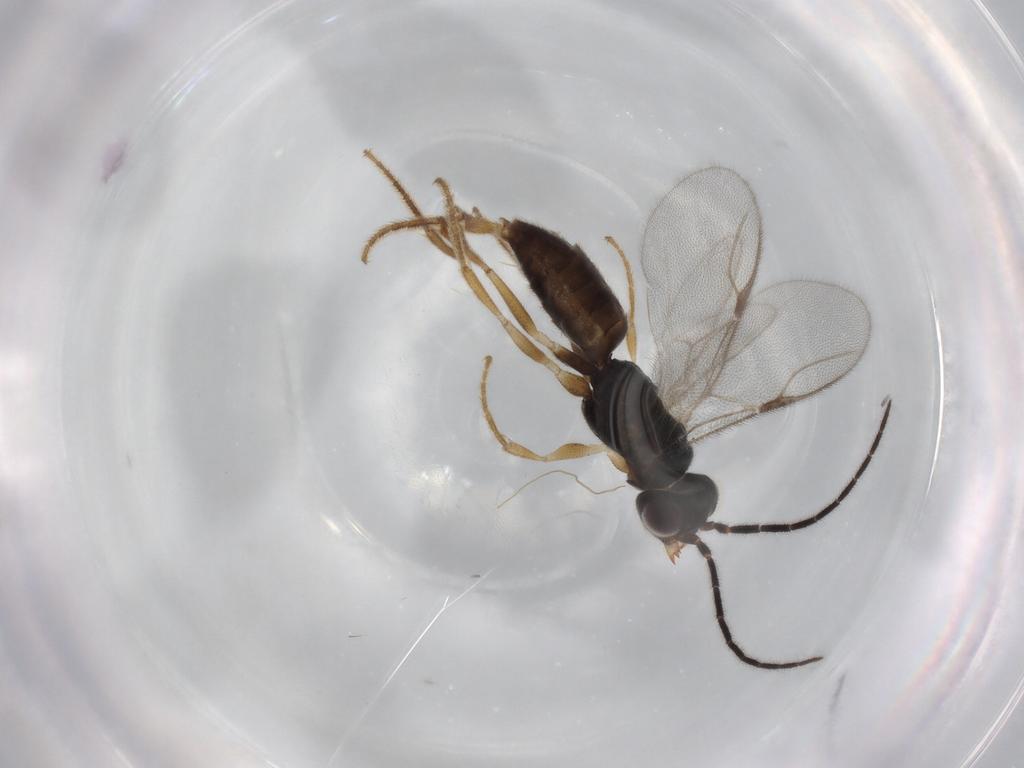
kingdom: Animalia
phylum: Arthropoda
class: Insecta
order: Hymenoptera
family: Dryinidae
